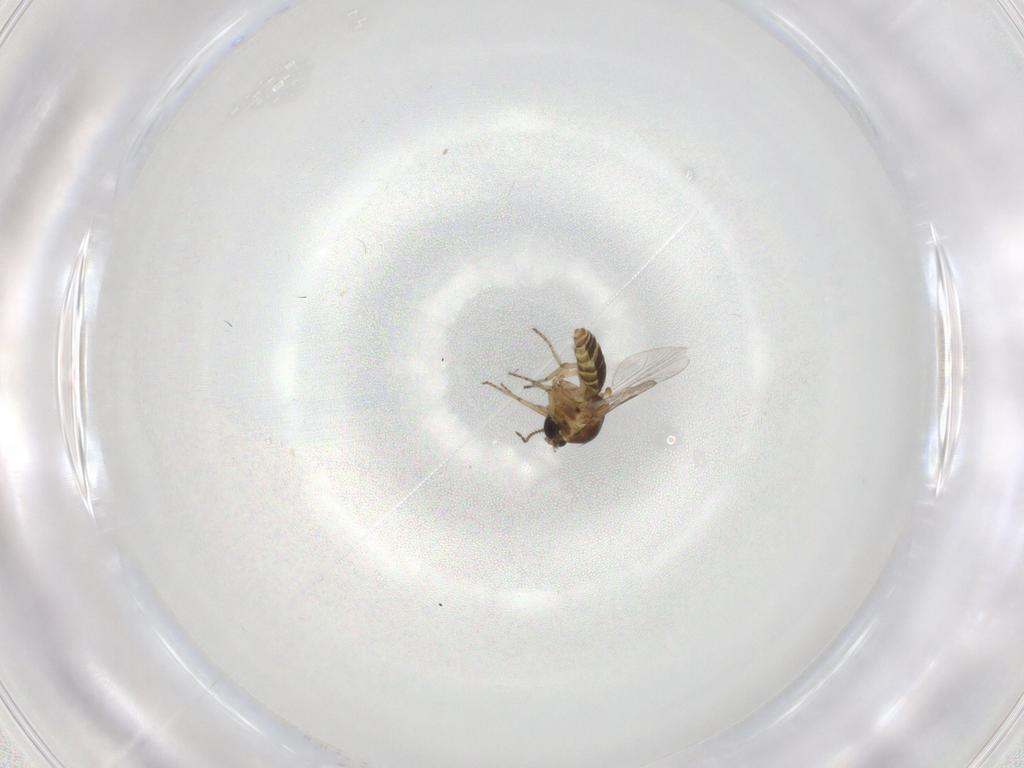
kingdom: Animalia
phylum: Arthropoda
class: Insecta
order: Diptera
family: Ceratopogonidae
